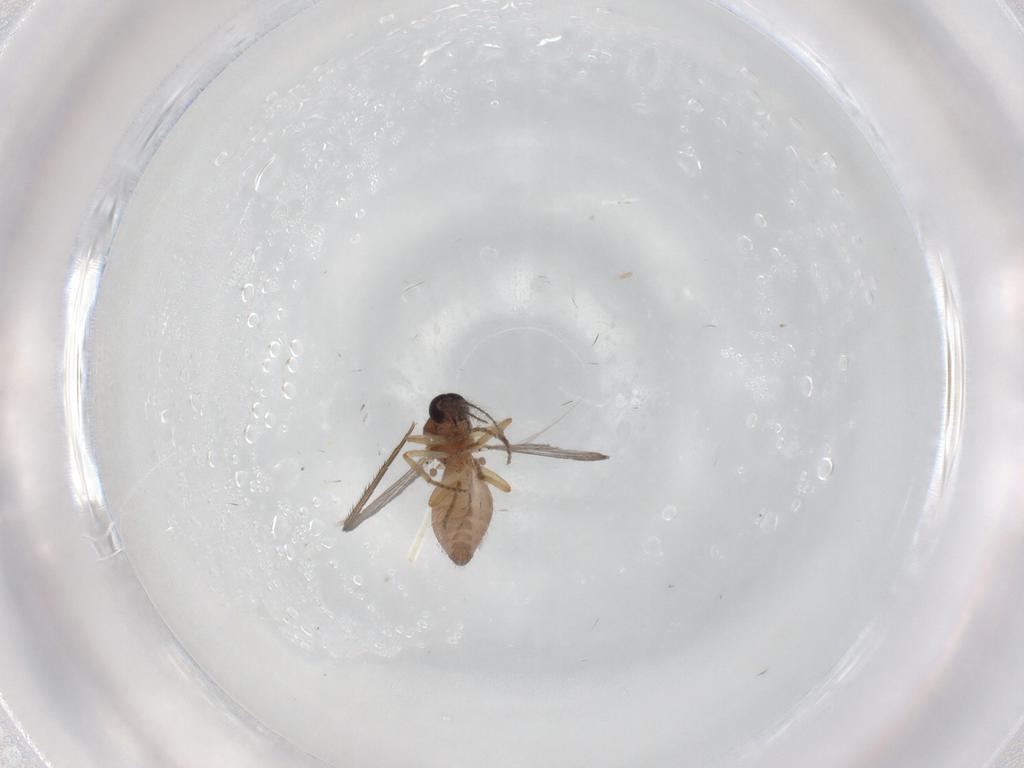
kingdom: Animalia
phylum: Arthropoda
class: Insecta
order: Diptera
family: Ceratopogonidae
